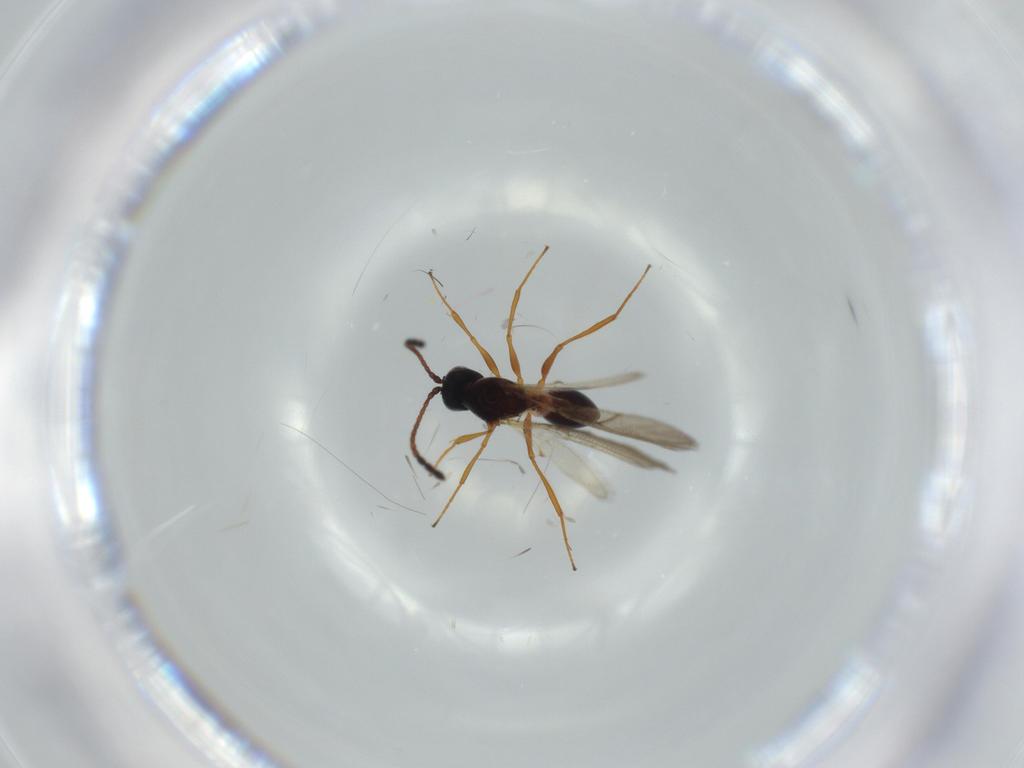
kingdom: Animalia
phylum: Arthropoda
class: Insecta
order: Hymenoptera
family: Figitidae
